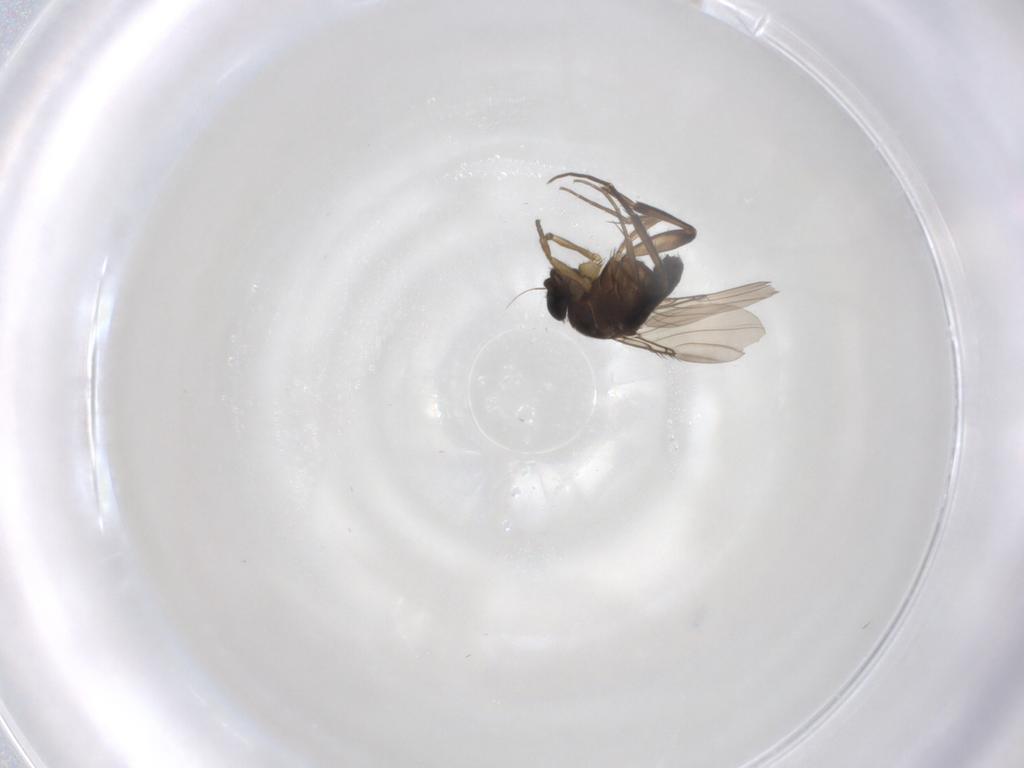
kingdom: Animalia
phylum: Arthropoda
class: Insecta
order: Diptera
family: Phoridae
